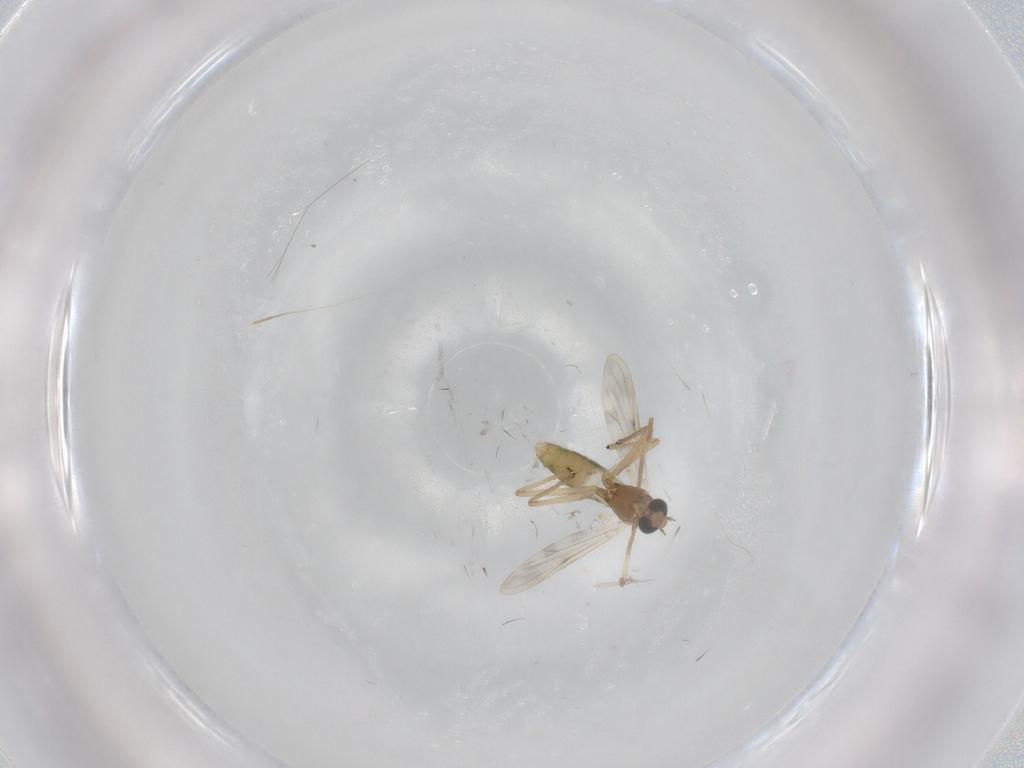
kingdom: Animalia
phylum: Arthropoda
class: Insecta
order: Diptera
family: Chironomidae
